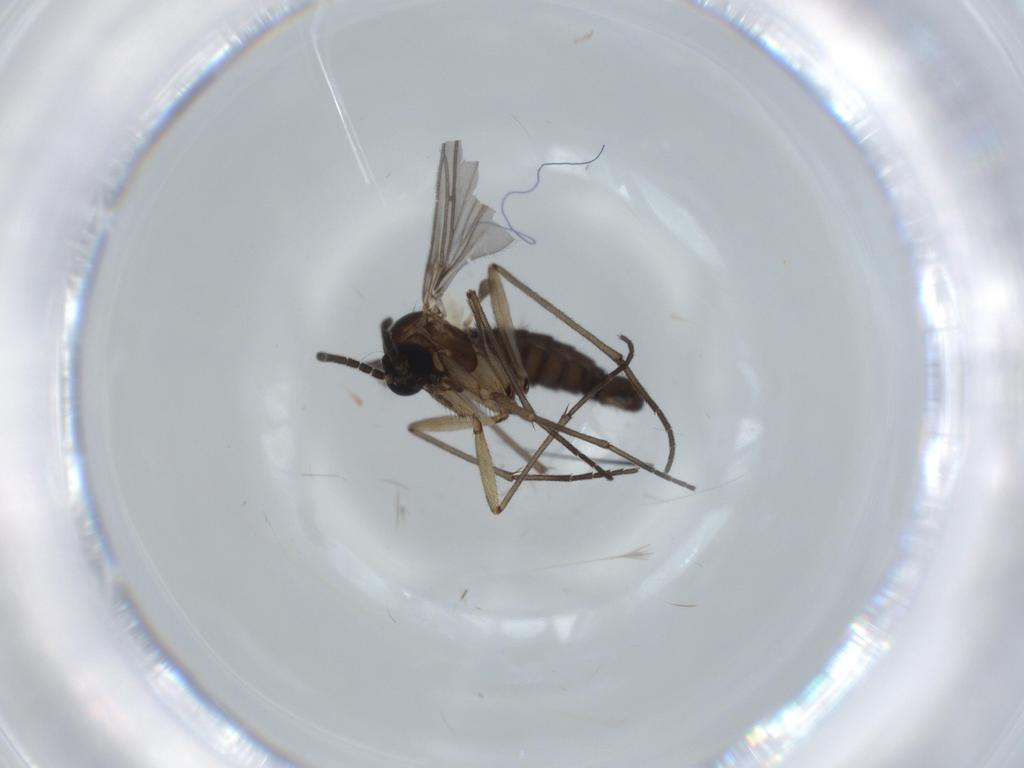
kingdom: Animalia
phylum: Arthropoda
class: Insecta
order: Diptera
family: Sciaridae
